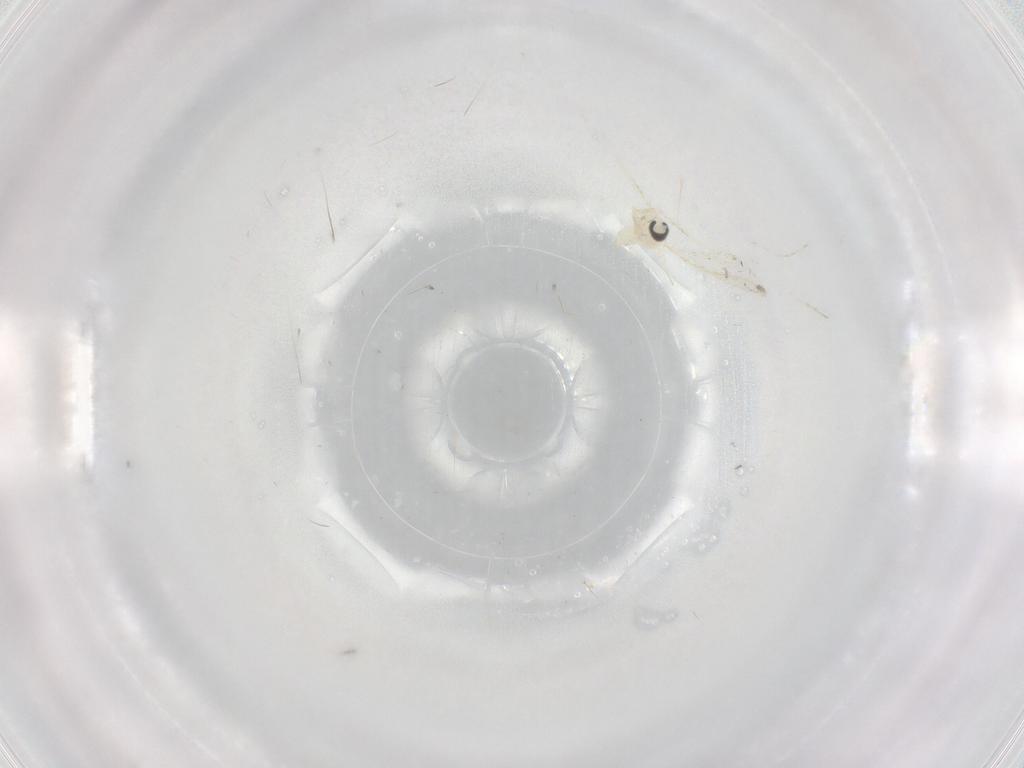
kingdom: Animalia
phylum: Arthropoda
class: Insecta
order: Diptera
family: Cecidomyiidae
